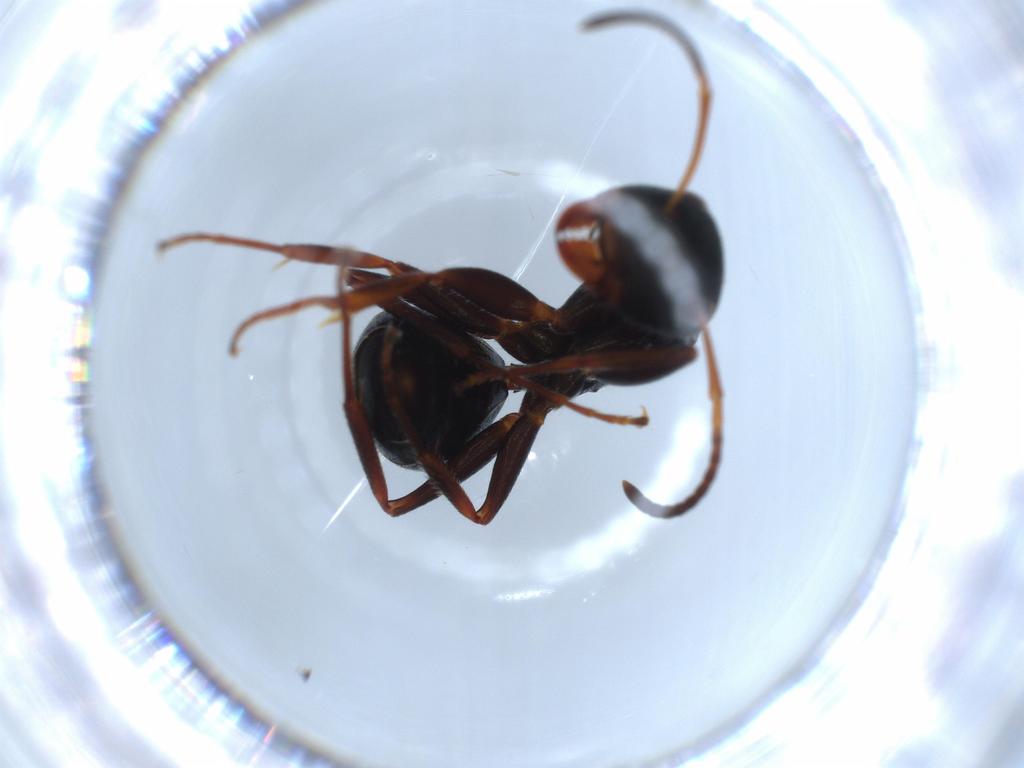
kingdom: Animalia
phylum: Arthropoda
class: Insecta
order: Hymenoptera
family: Formicidae
